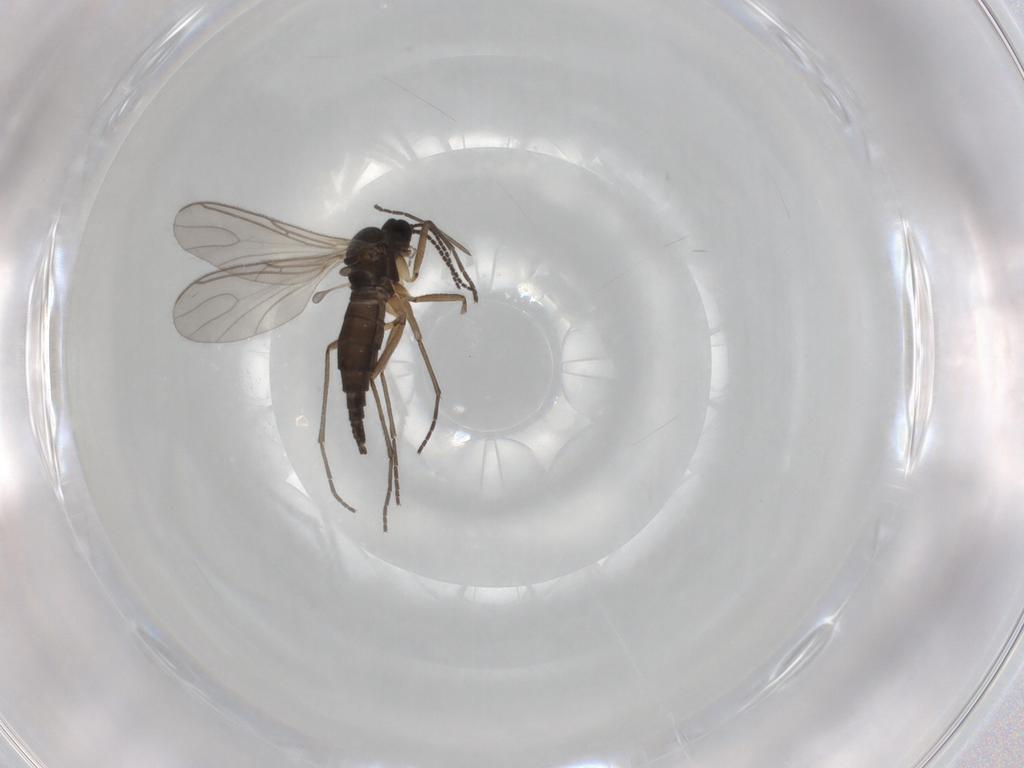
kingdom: Animalia
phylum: Arthropoda
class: Insecta
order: Diptera
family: Sciaridae
